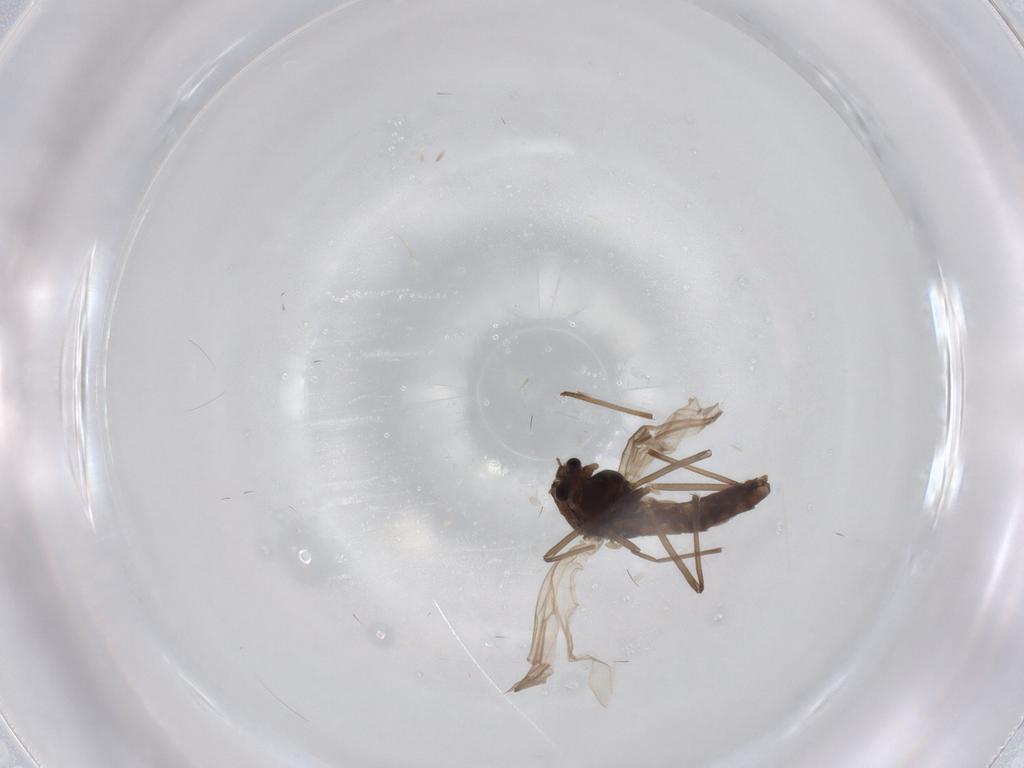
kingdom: Animalia
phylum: Arthropoda
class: Insecta
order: Diptera
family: Chironomidae
